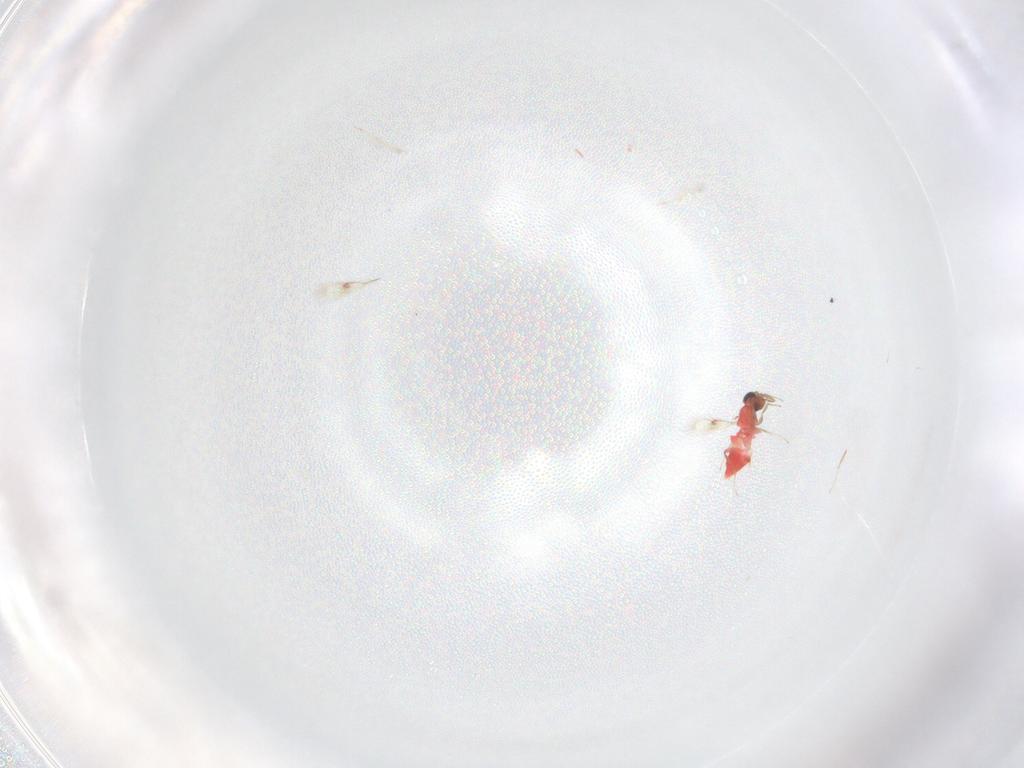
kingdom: Animalia
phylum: Arthropoda
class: Insecta
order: Hymenoptera
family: Trichogrammatidae
